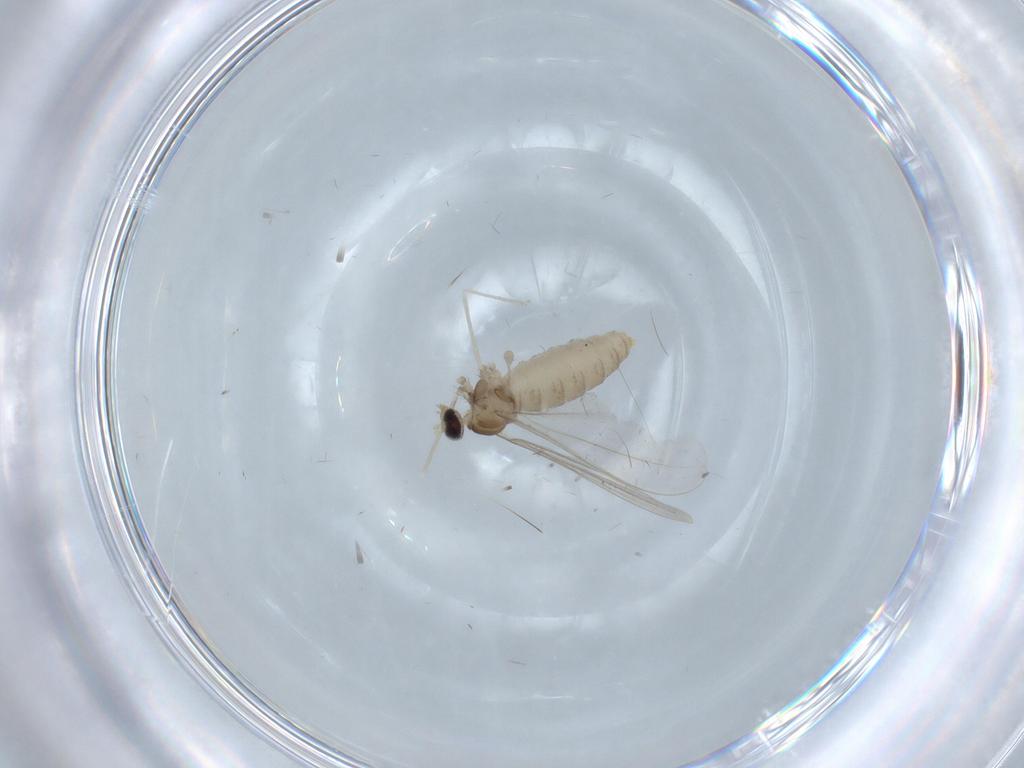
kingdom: Animalia
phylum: Arthropoda
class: Insecta
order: Diptera
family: Cecidomyiidae
